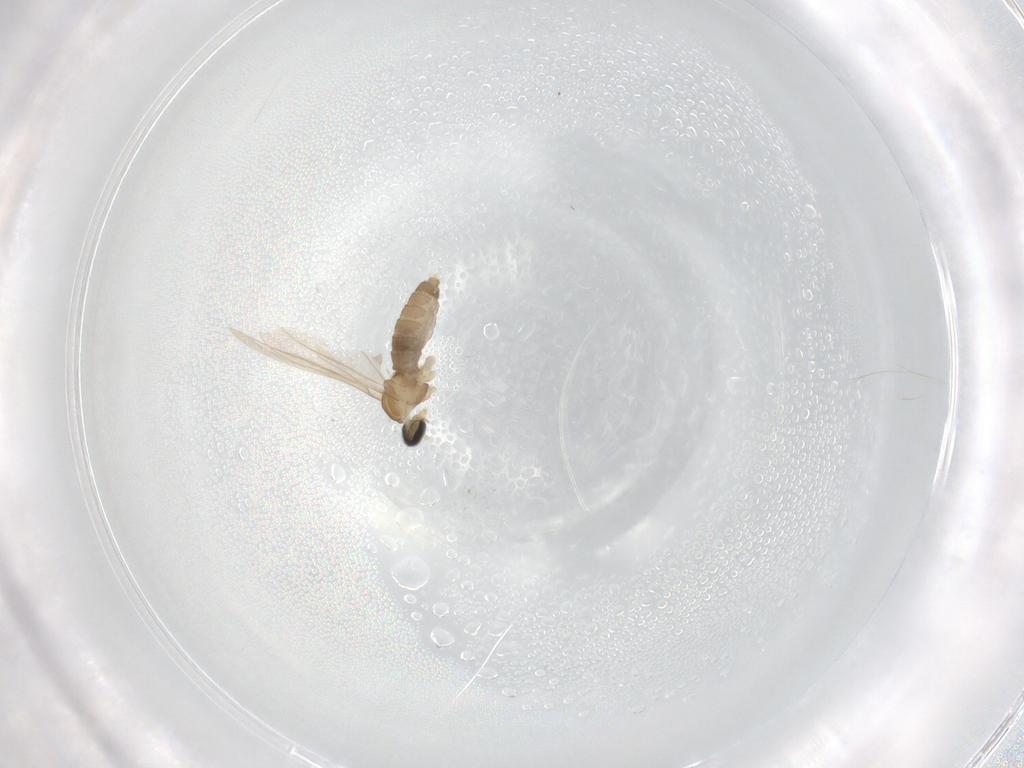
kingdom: Animalia
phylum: Arthropoda
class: Insecta
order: Diptera
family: Cecidomyiidae
